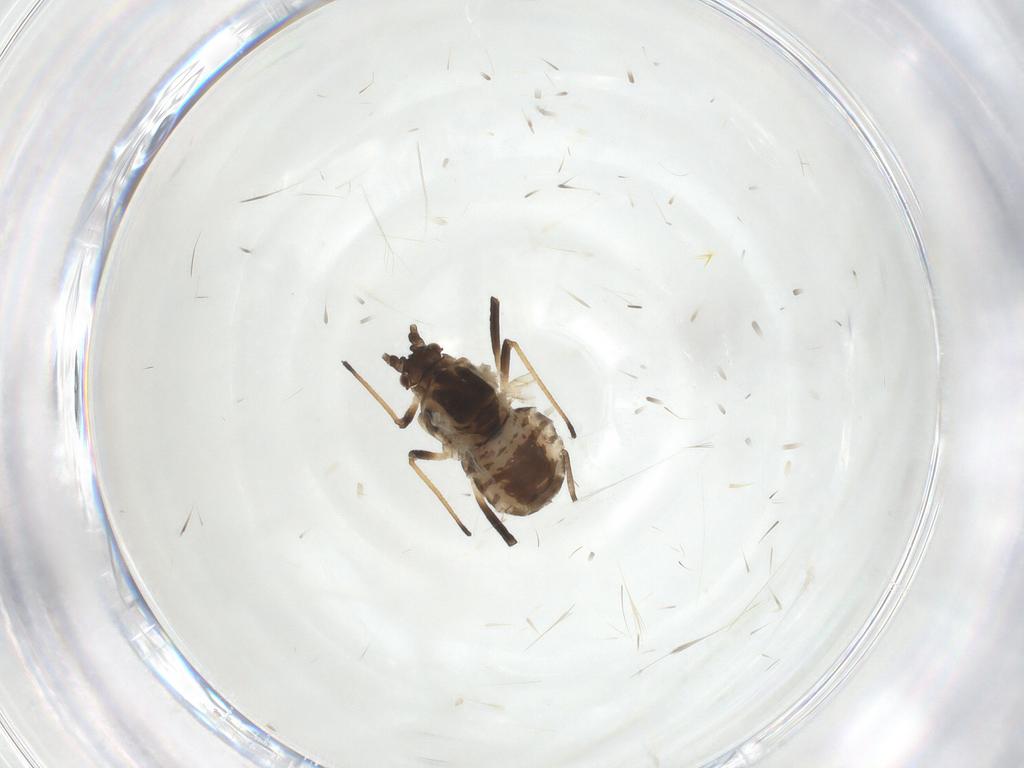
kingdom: Animalia
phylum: Arthropoda
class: Insecta
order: Hemiptera
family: Aphididae
